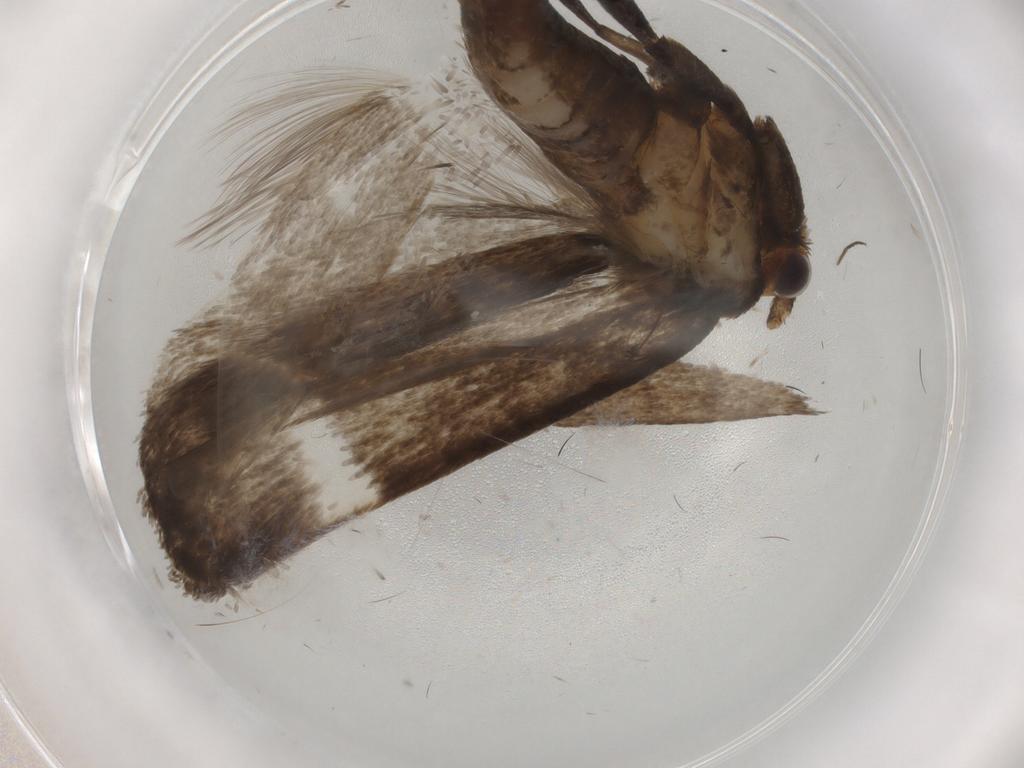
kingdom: Animalia
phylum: Arthropoda
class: Insecta
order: Lepidoptera
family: Tineidae
